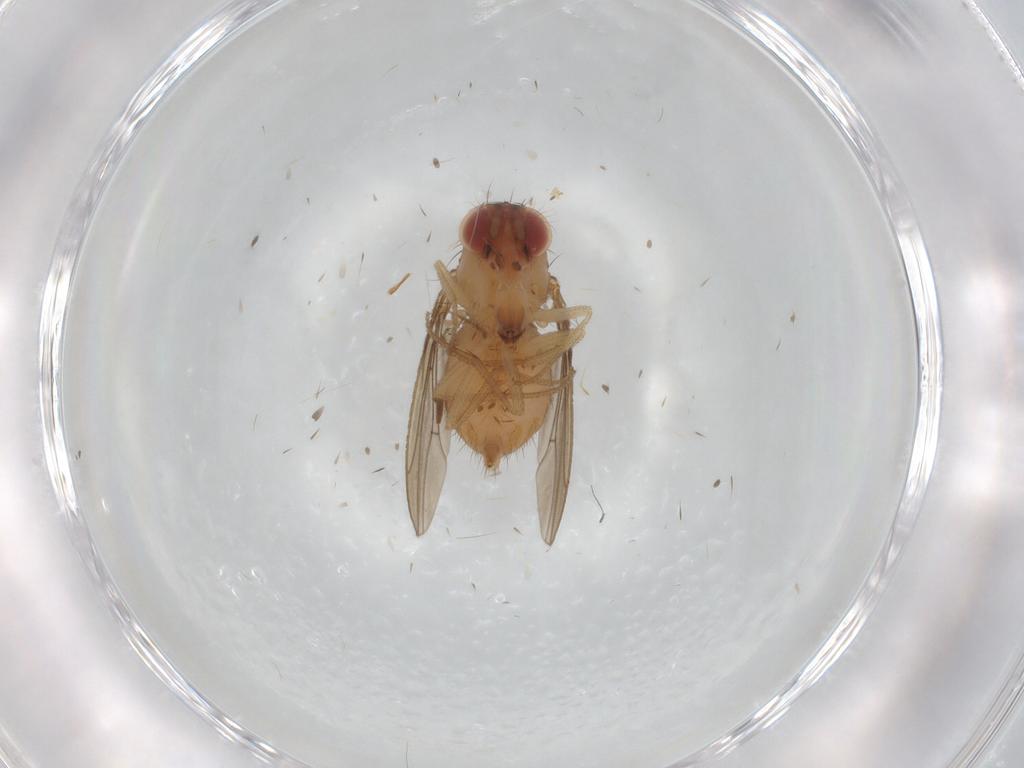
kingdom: Animalia
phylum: Arthropoda
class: Insecta
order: Diptera
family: Drosophilidae
